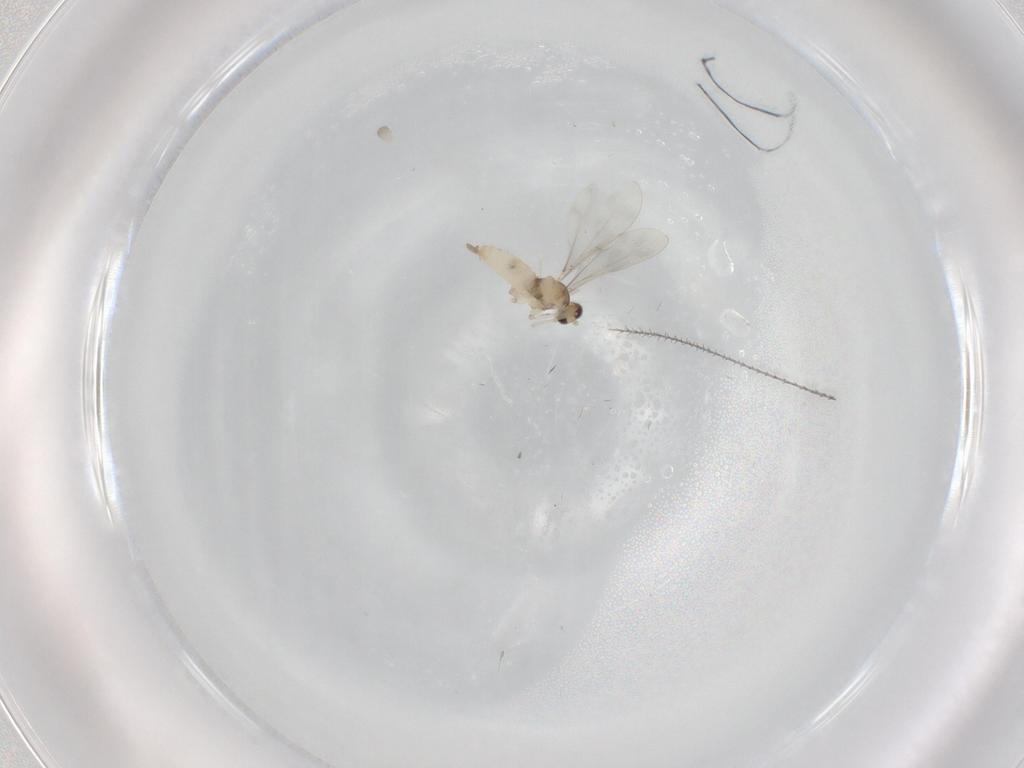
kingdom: Animalia
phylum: Arthropoda
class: Insecta
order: Diptera
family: Cecidomyiidae
